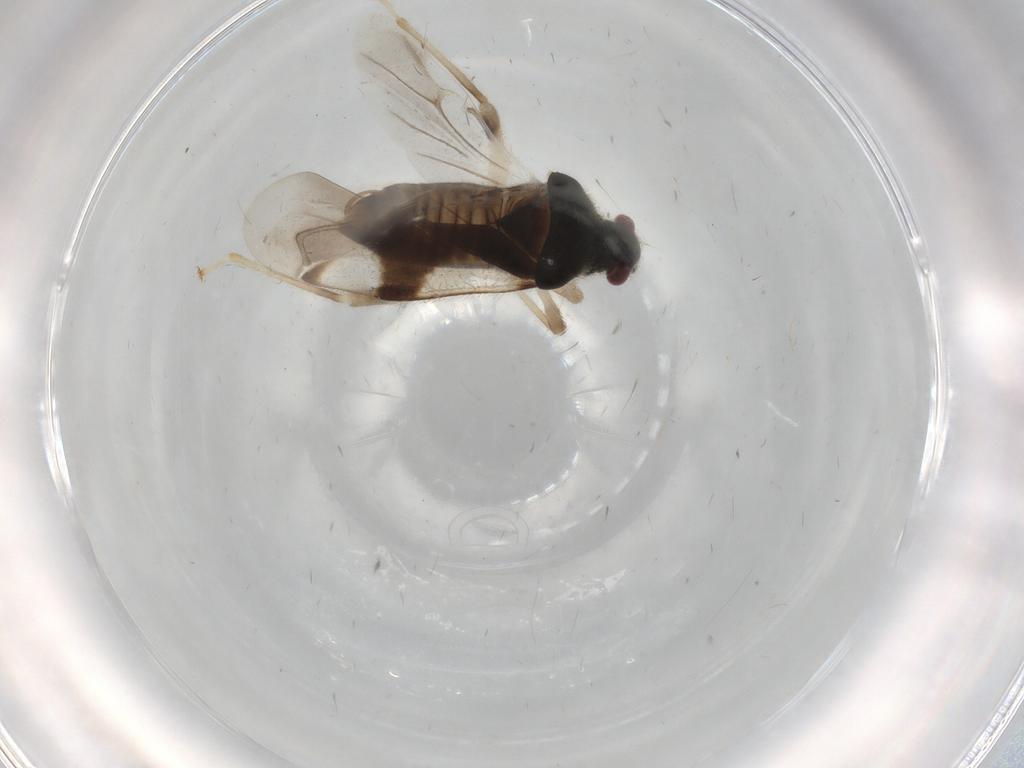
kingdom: Animalia
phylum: Arthropoda
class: Insecta
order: Hemiptera
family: Miridae
